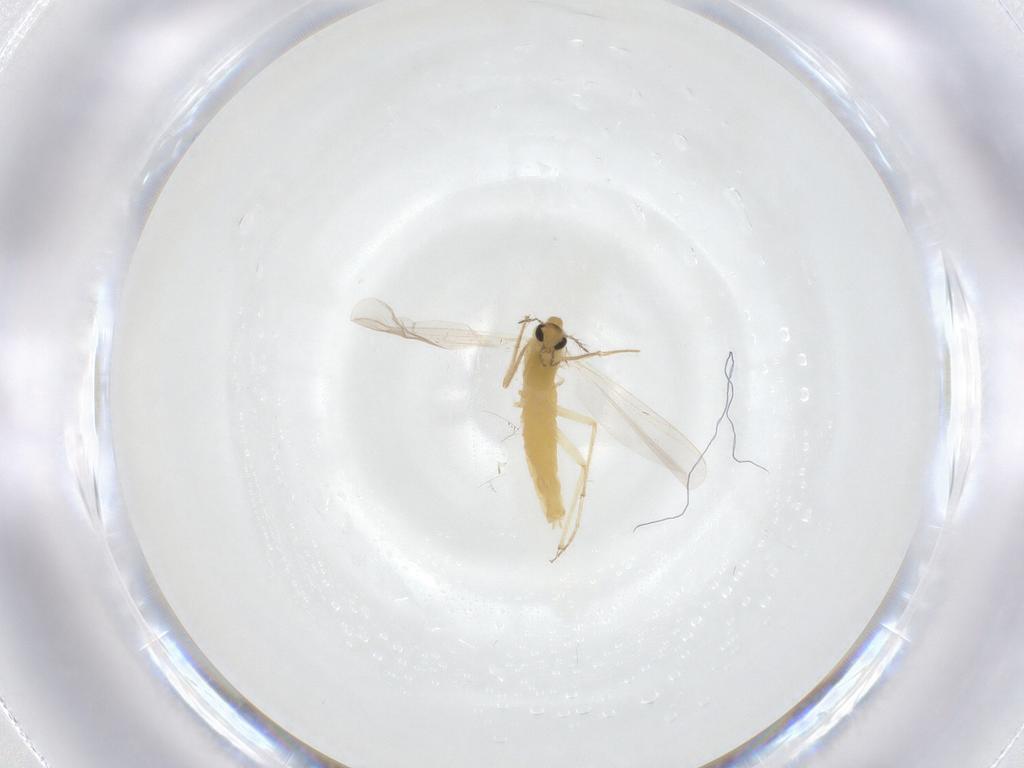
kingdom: Animalia
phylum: Arthropoda
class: Insecta
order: Diptera
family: Chironomidae
